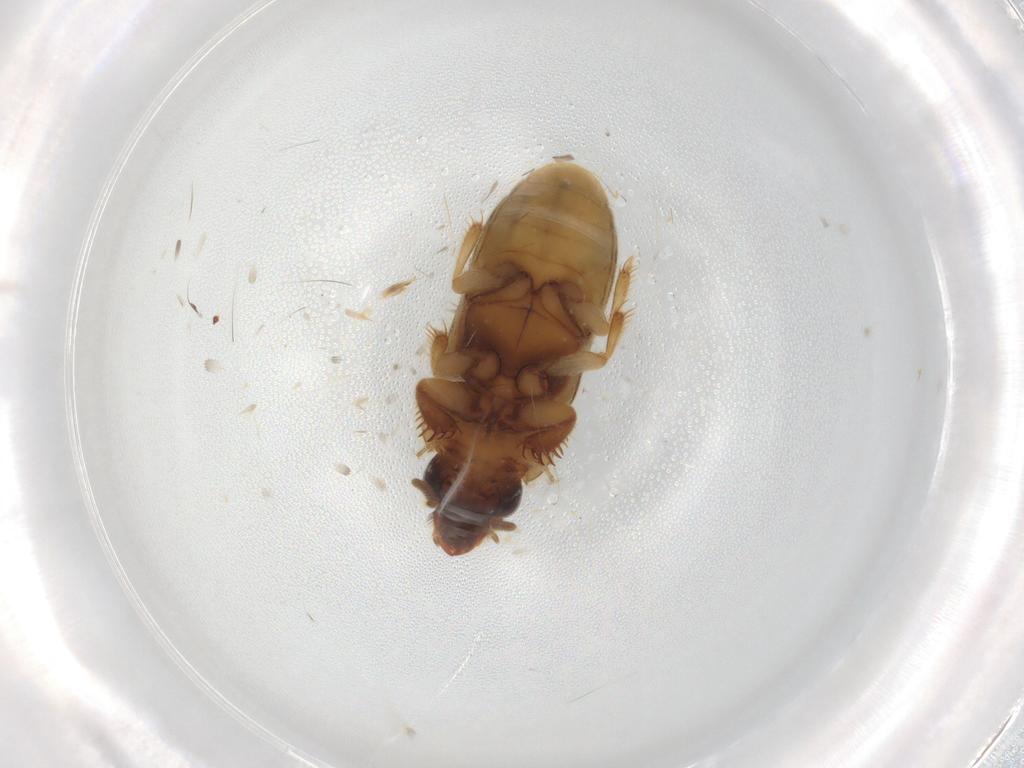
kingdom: Animalia
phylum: Arthropoda
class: Insecta
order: Coleoptera
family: Heteroceridae
